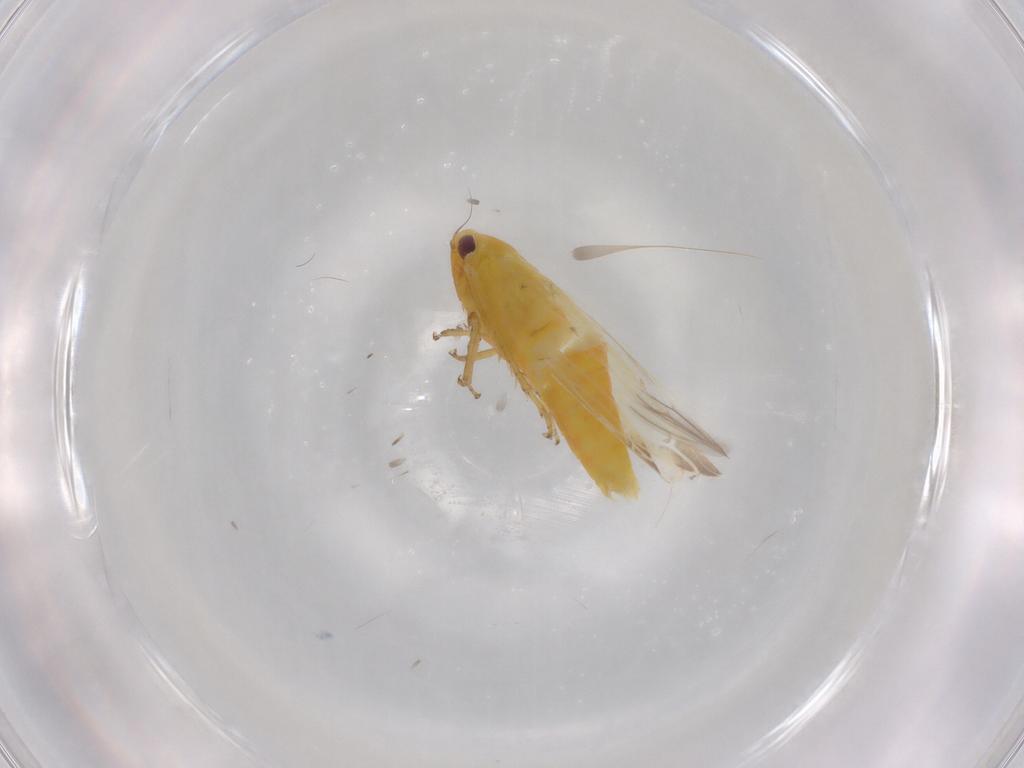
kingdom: Animalia
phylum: Arthropoda
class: Insecta
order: Hemiptera
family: Cicadellidae
